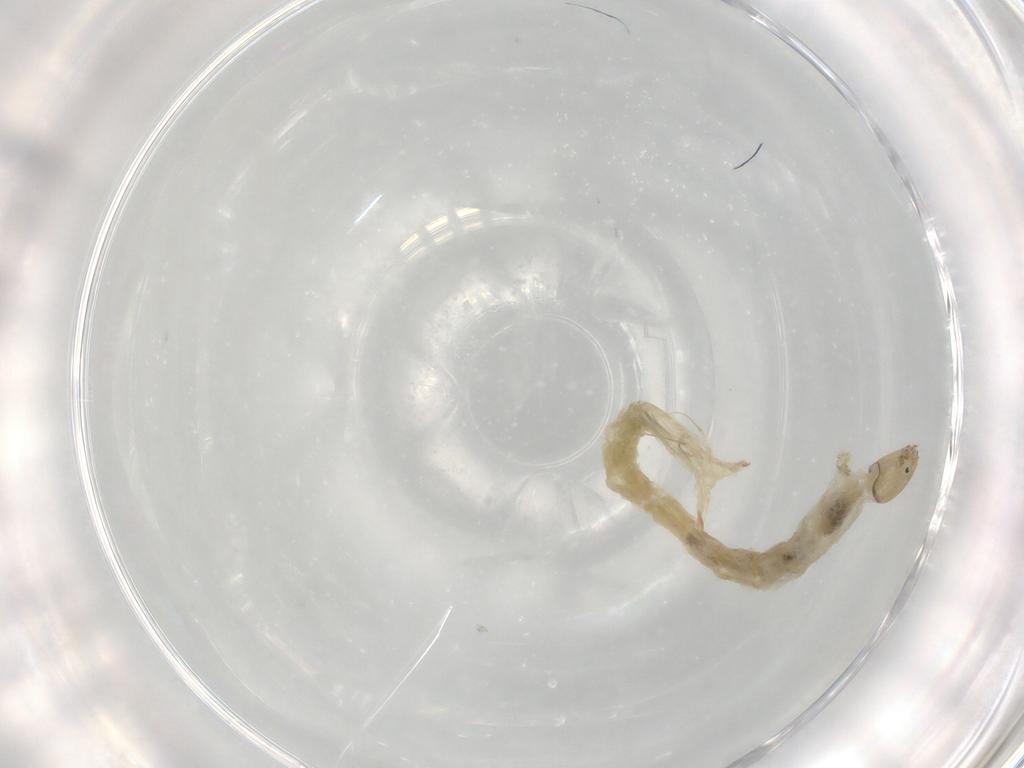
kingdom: Animalia
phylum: Arthropoda
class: Insecta
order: Diptera
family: Chironomidae
